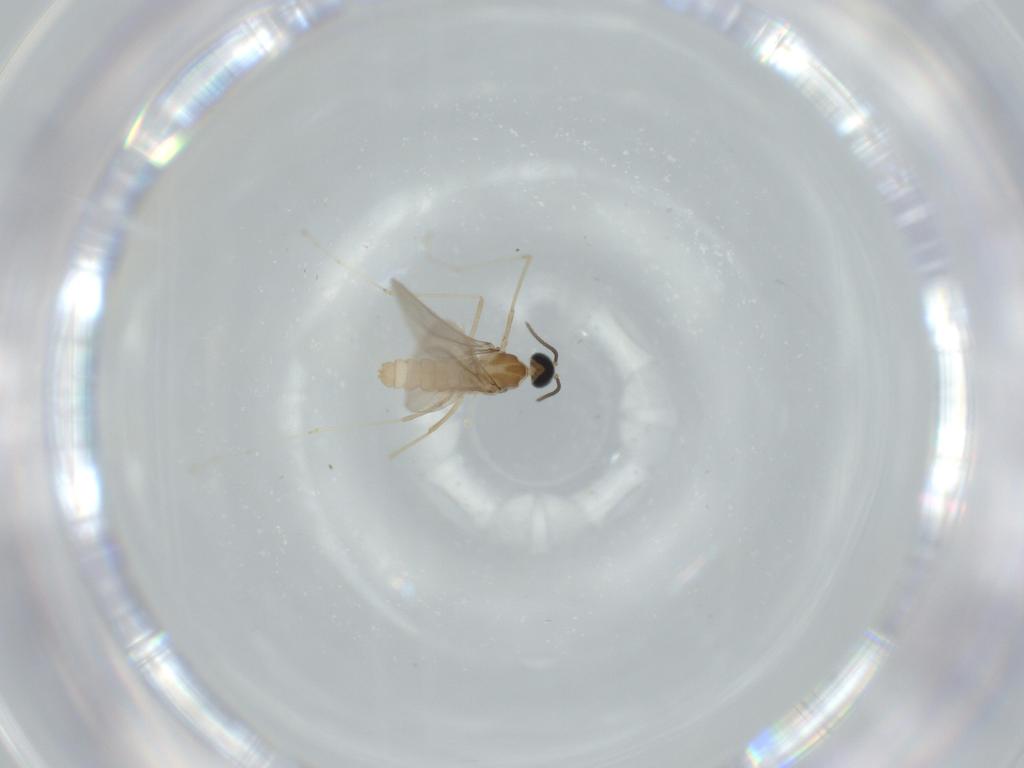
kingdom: Animalia
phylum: Arthropoda
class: Insecta
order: Diptera
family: Cecidomyiidae
